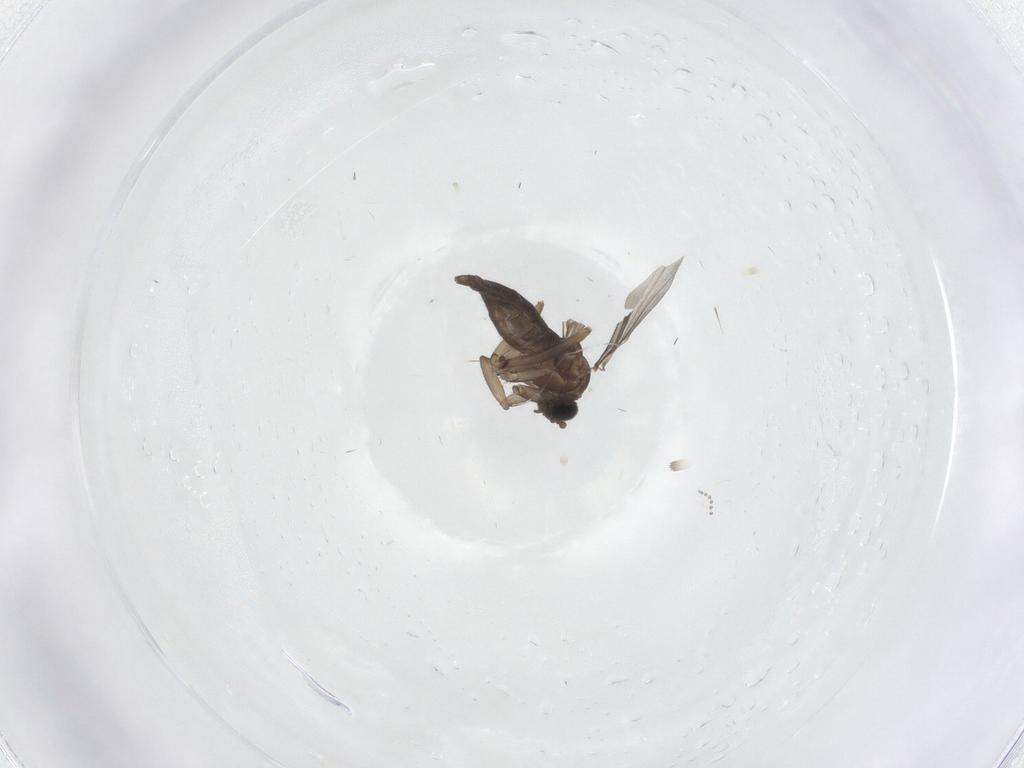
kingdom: Animalia
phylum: Arthropoda
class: Insecta
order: Diptera
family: Sciaridae
